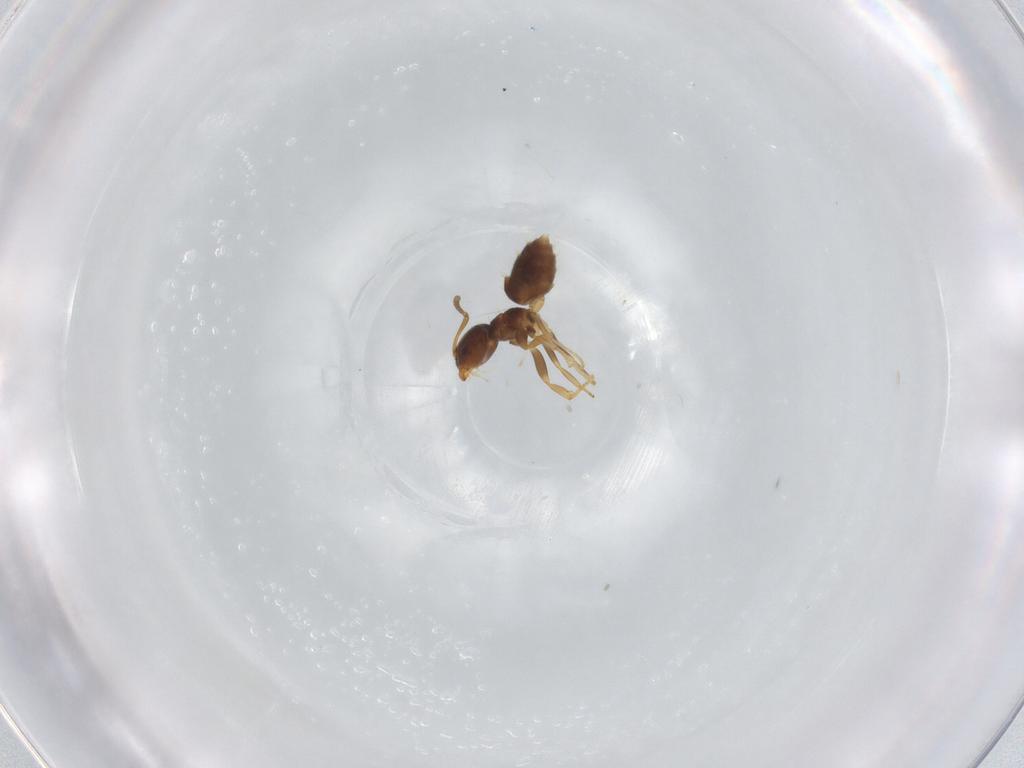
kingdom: Animalia
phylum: Arthropoda
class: Insecta
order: Hymenoptera
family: Formicidae
